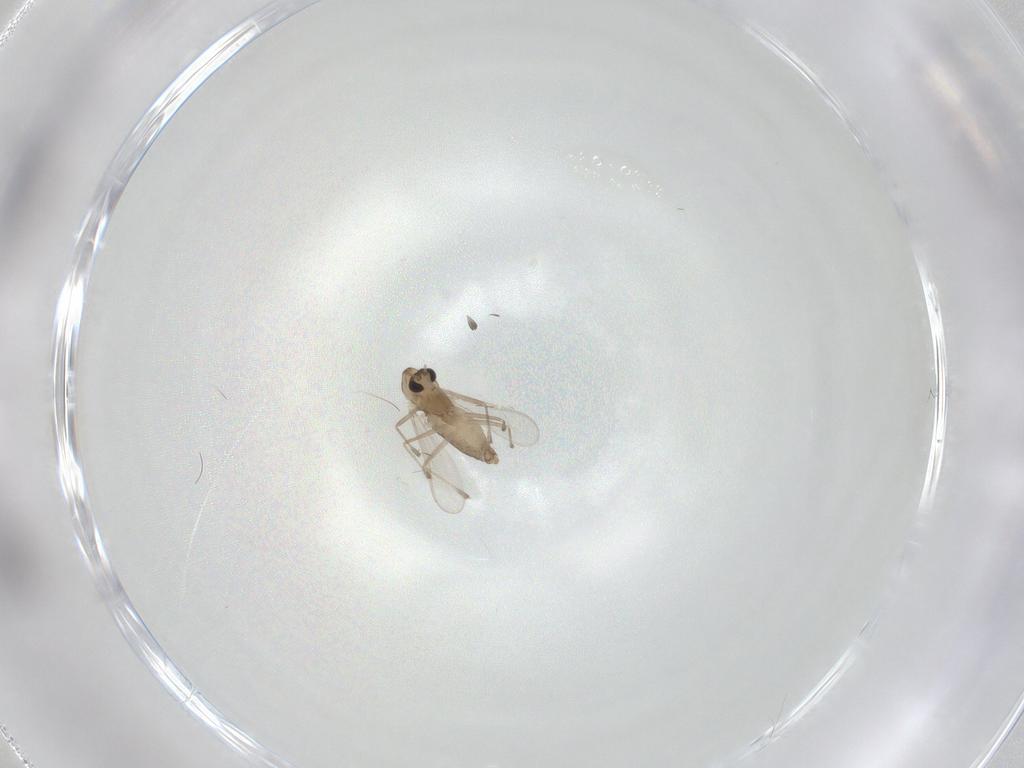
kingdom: Animalia
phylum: Arthropoda
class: Insecta
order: Diptera
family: Chironomidae
